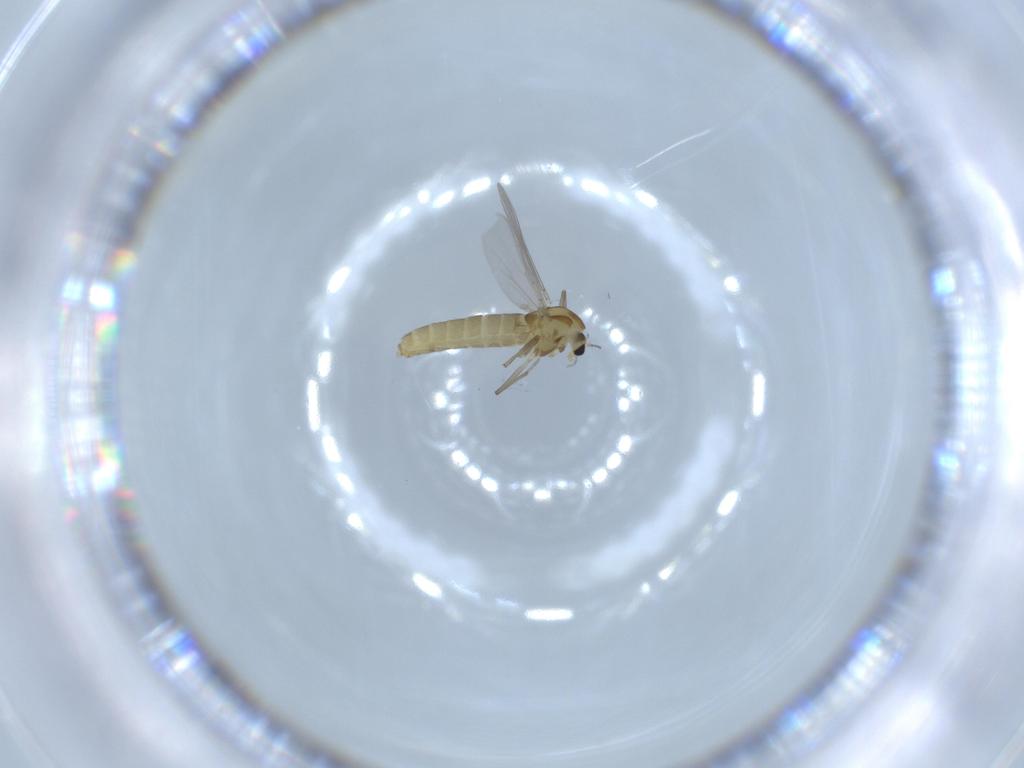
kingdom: Animalia
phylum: Arthropoda
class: Insecta
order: Diptera
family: Chironomidae
